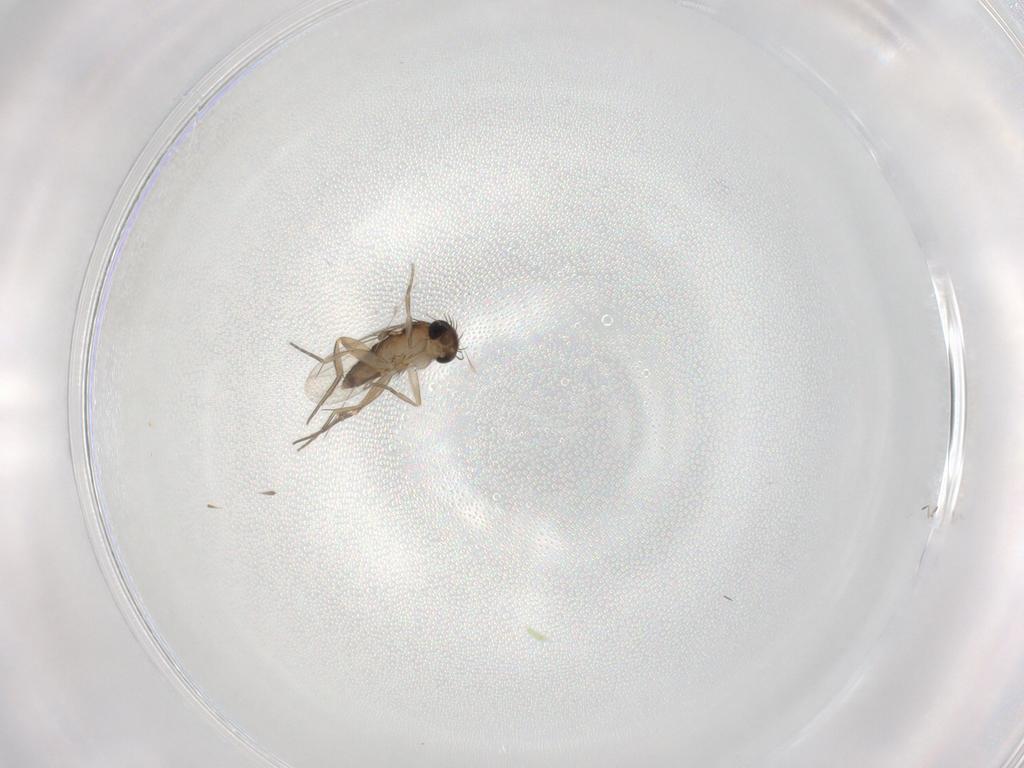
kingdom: Animalia
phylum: Arthropoda
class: Insecta
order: Diptera
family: Phoridae
